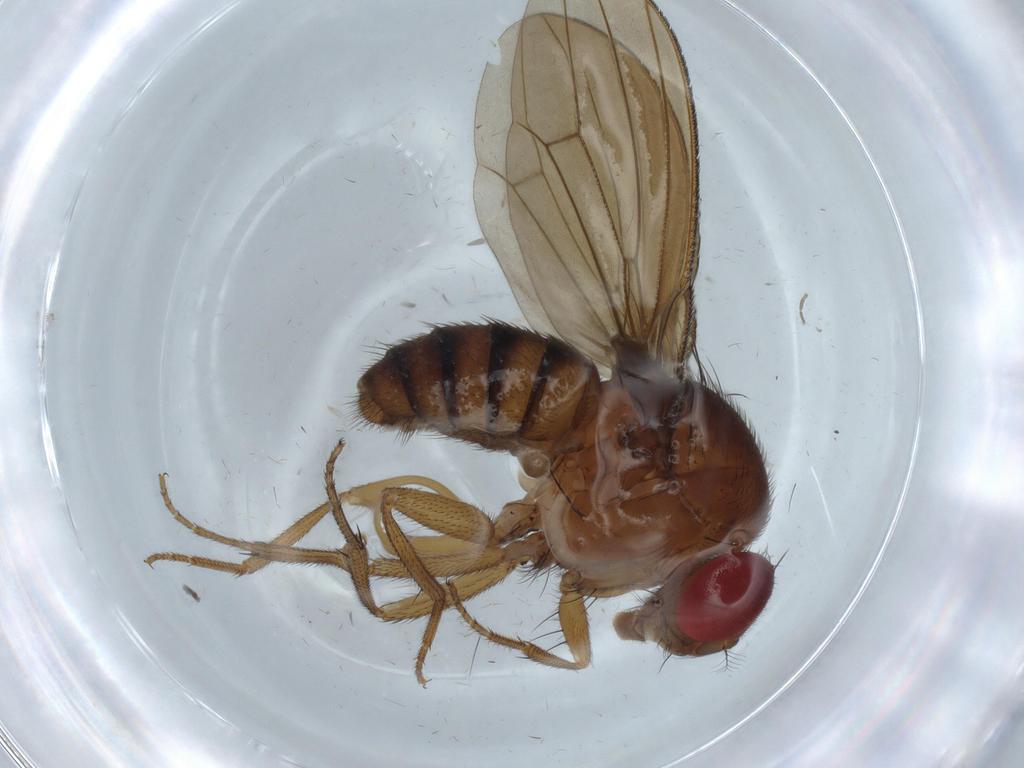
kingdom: Animalia
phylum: Arthropoda
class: Insecta
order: Diptera
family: Drosophilidae
